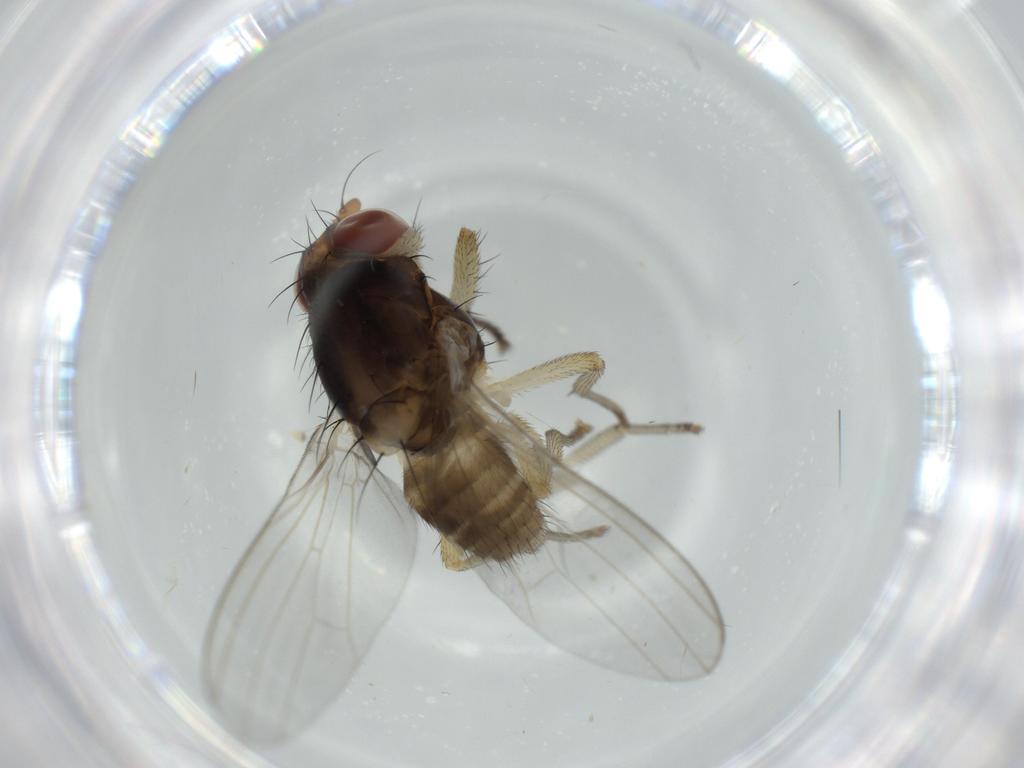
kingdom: Animalia
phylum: Arthropoda
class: Insecta
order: Diptera
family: Lauxaniidae
